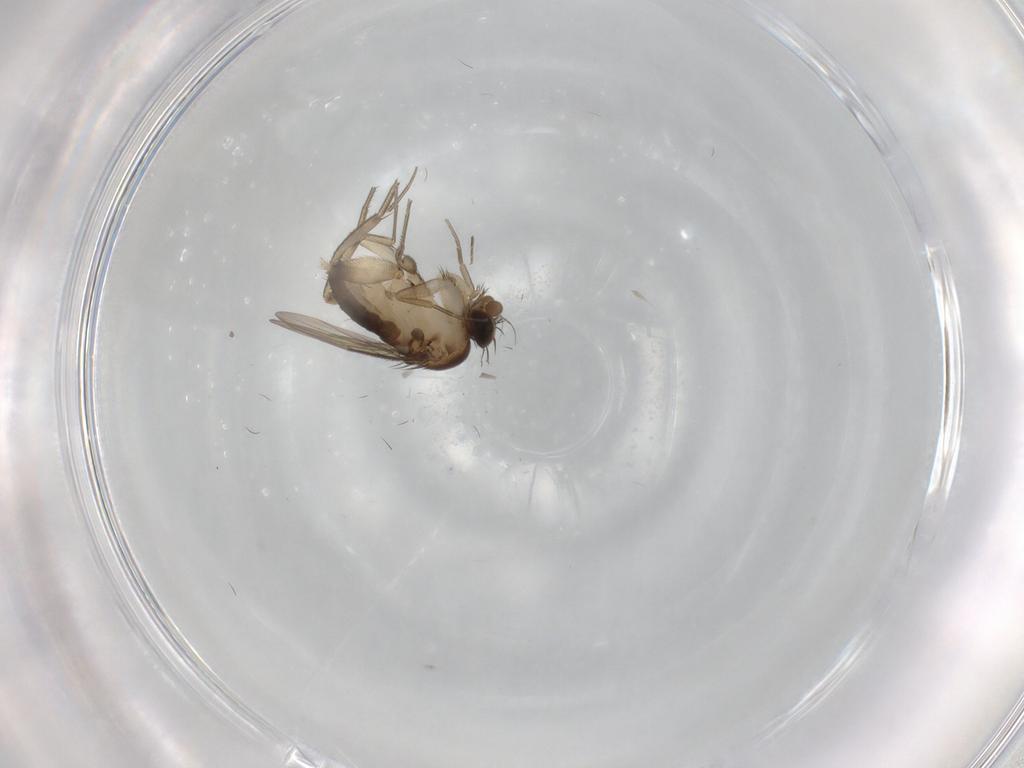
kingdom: Animalia
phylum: Arthropoda
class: Insecta
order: Diptera
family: Phoridae
